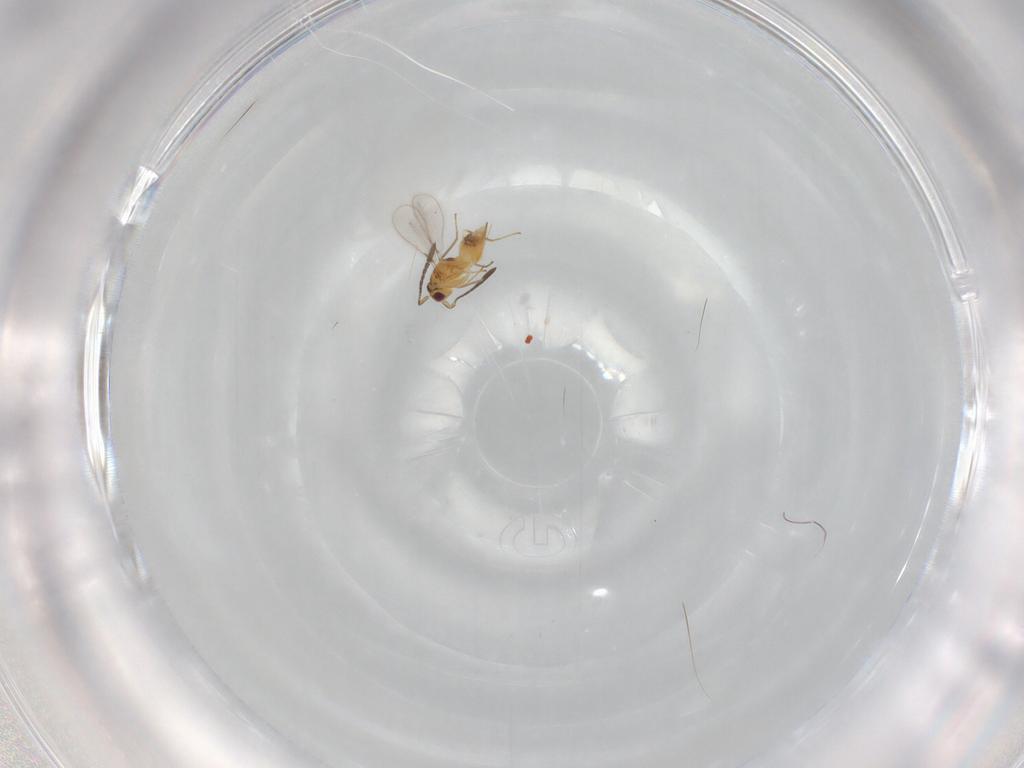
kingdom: Animalia
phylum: Arthropoda
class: Insecta
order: Hymenoptera
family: Mymaridae
